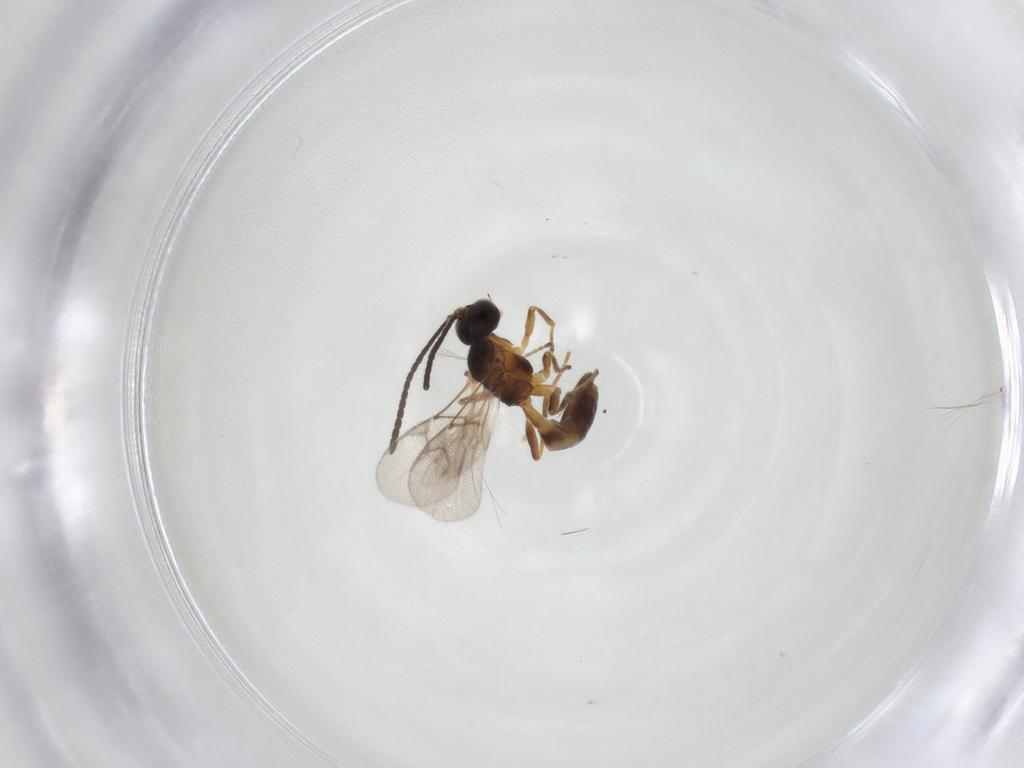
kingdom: Animalia
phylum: Arthropoda
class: Insecta
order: Hymenoptera
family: Braconidae
